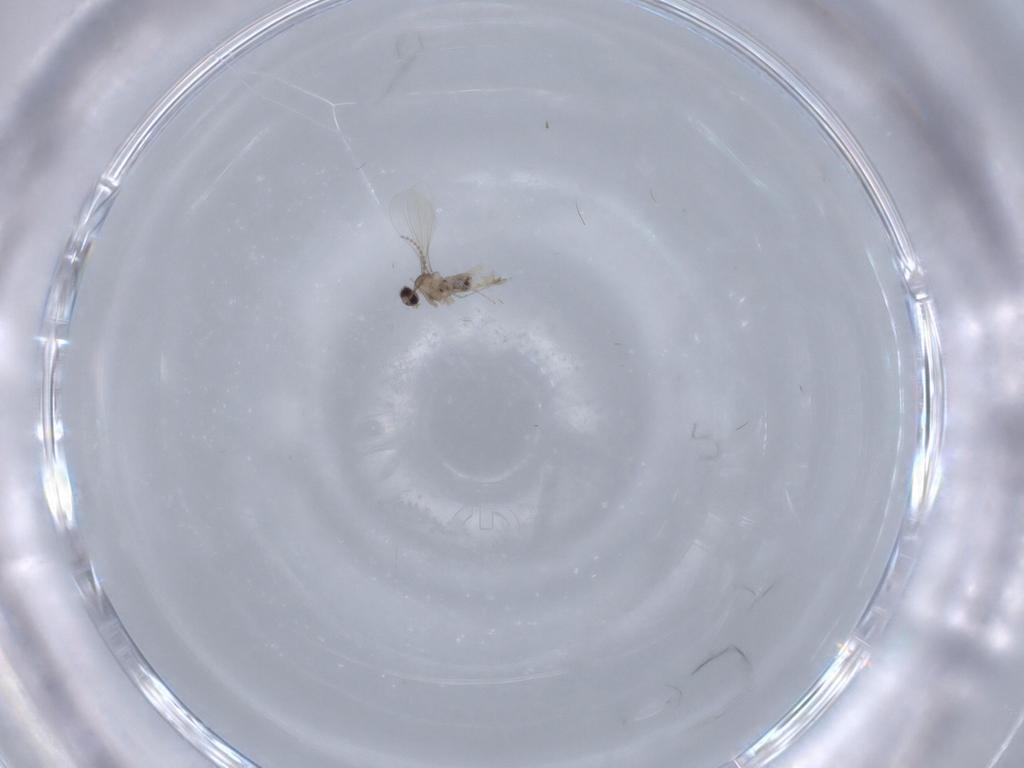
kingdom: Animalia
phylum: Arthropoda
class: Insecta
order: Diptera
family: Cecidomyiidae
